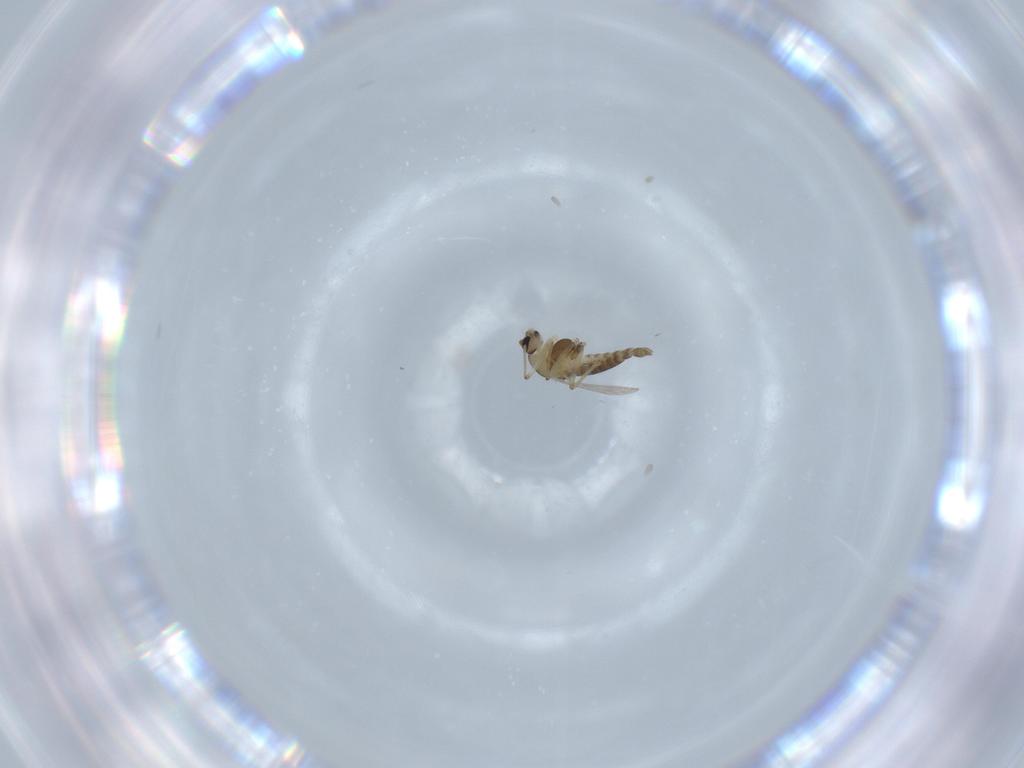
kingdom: Animalia
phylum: Arthropoda
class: Insecta
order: Diptera
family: Chironomidae
